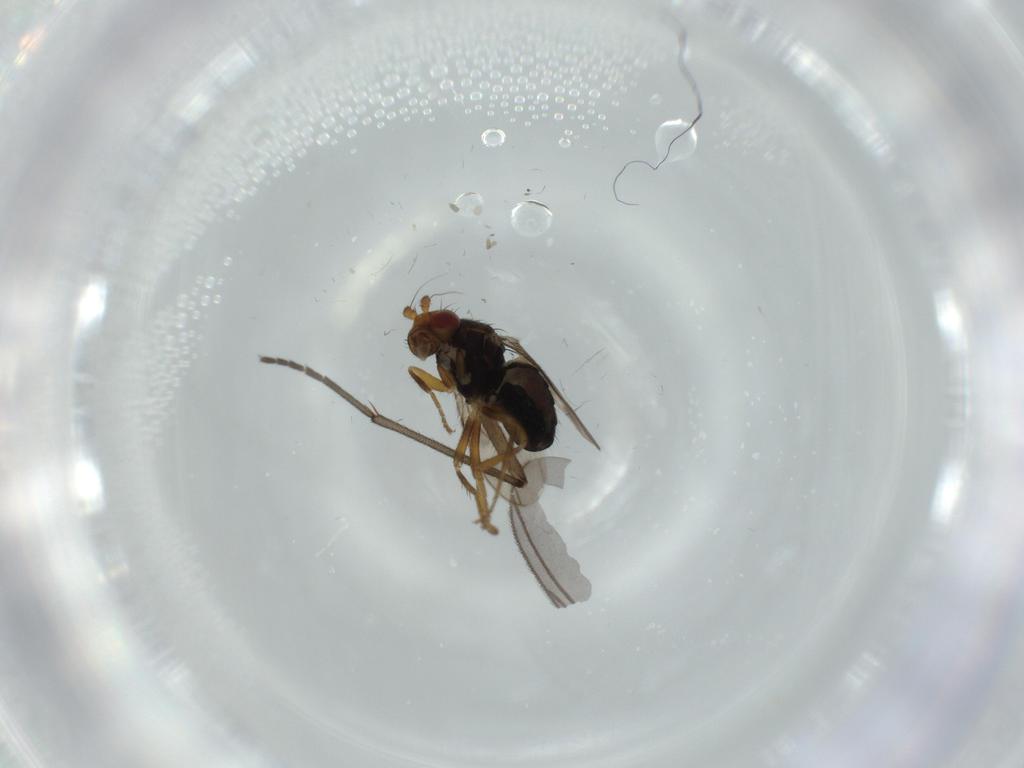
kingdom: Animalia
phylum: Arthropoda
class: Insecta
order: Diptera
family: Sphaeroceridae
